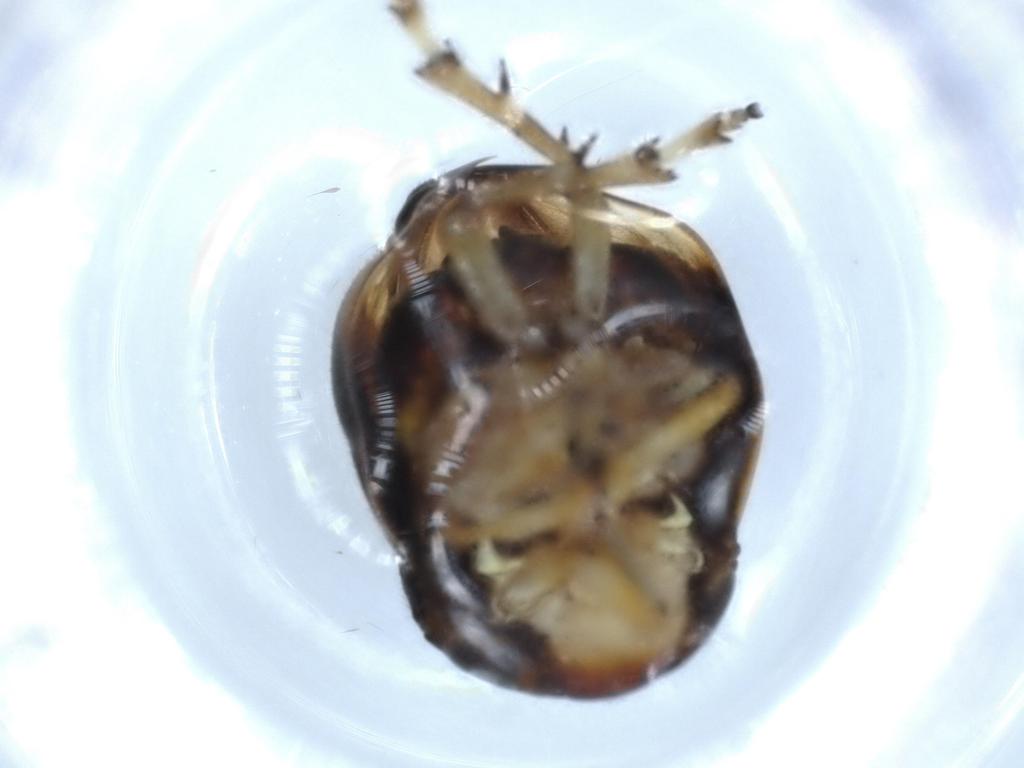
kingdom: Animalia
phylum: Arthropoda
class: Insecta
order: Hemiptera
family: Clastopteridae
